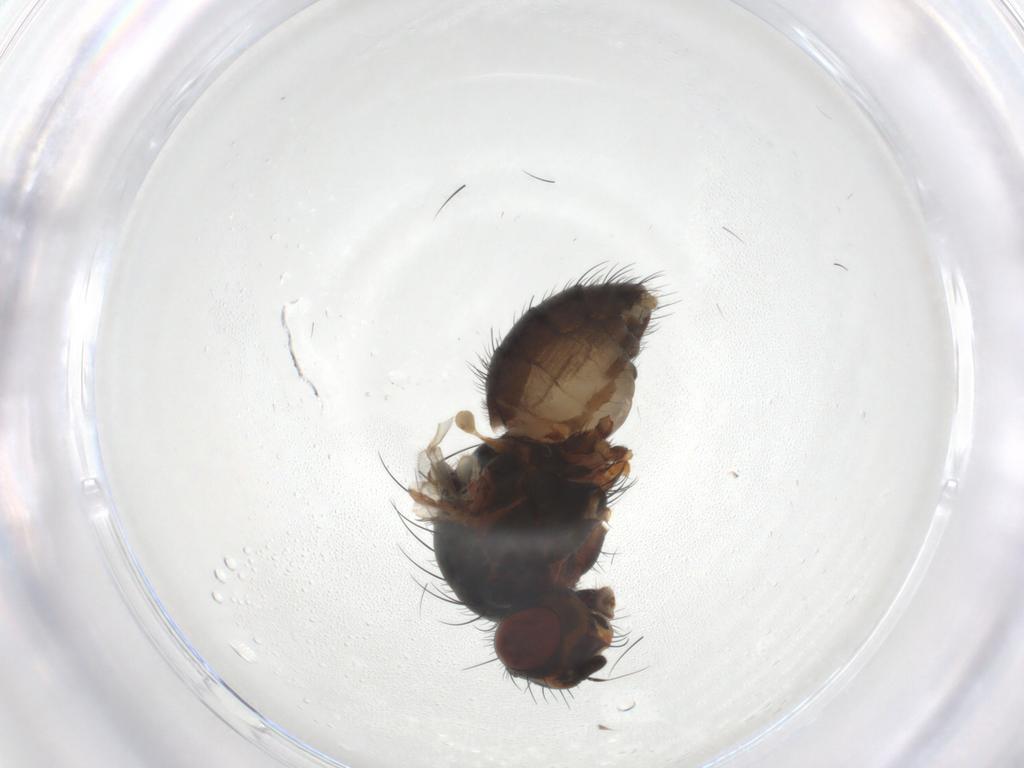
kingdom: Animalia
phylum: Arthropoda
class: Insecta
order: Diptera
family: Anthomyiidae
